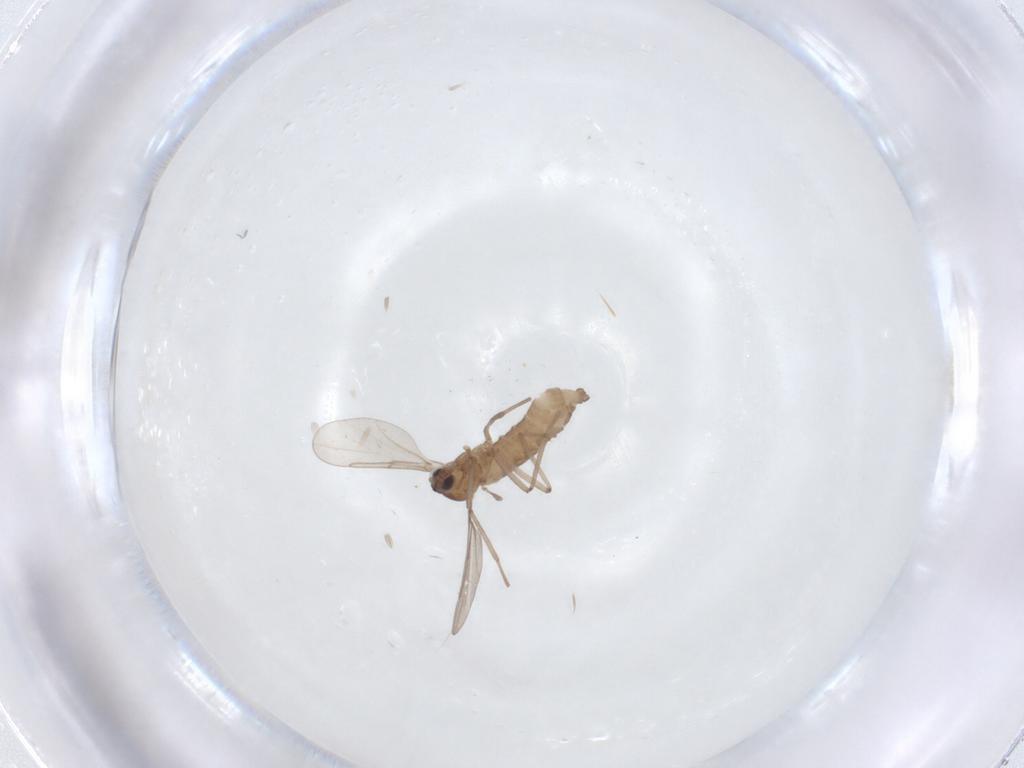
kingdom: Animalia
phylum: Arthropoda
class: Insecta
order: Diptera
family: Cecidomyiidae
